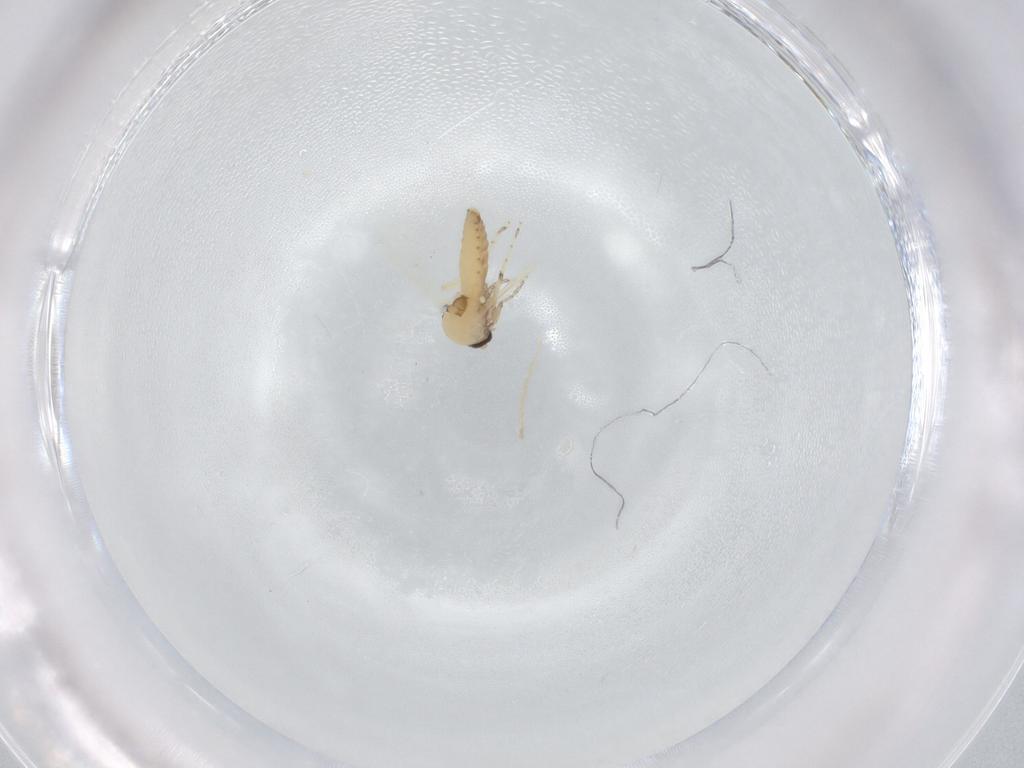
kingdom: Animalia
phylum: Arthropoda
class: Insecta
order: Diptera
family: Ceratopogonidae
